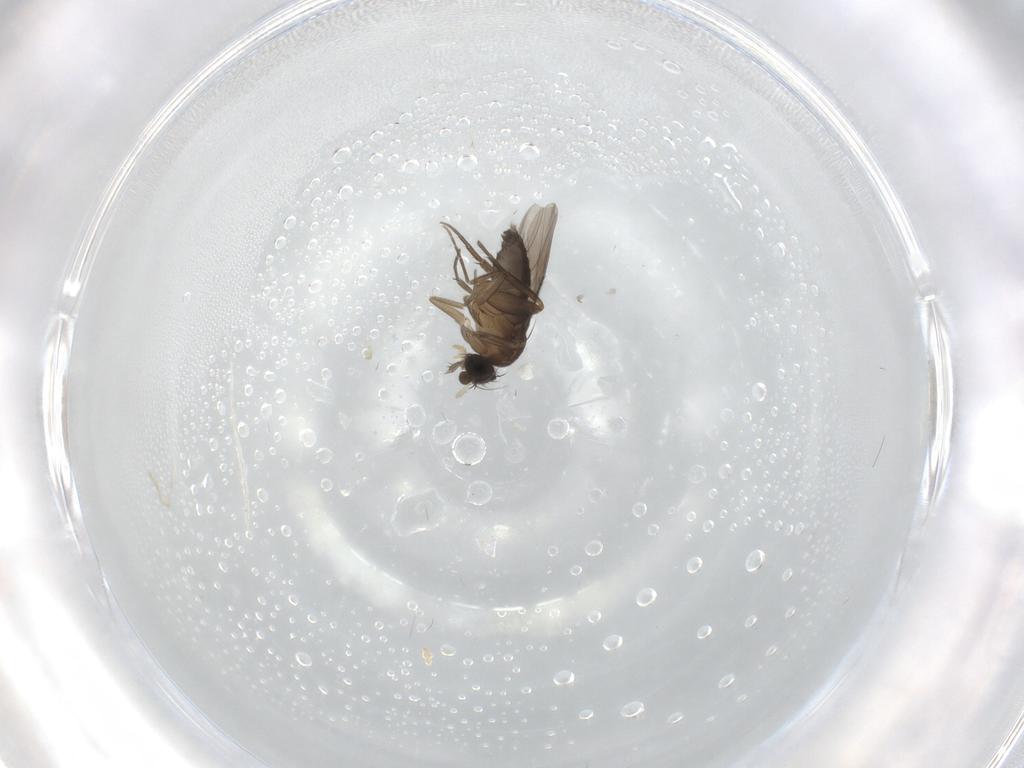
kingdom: Animalia
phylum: Arthropoda
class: Insecta
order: Diptera
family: Phoridae
